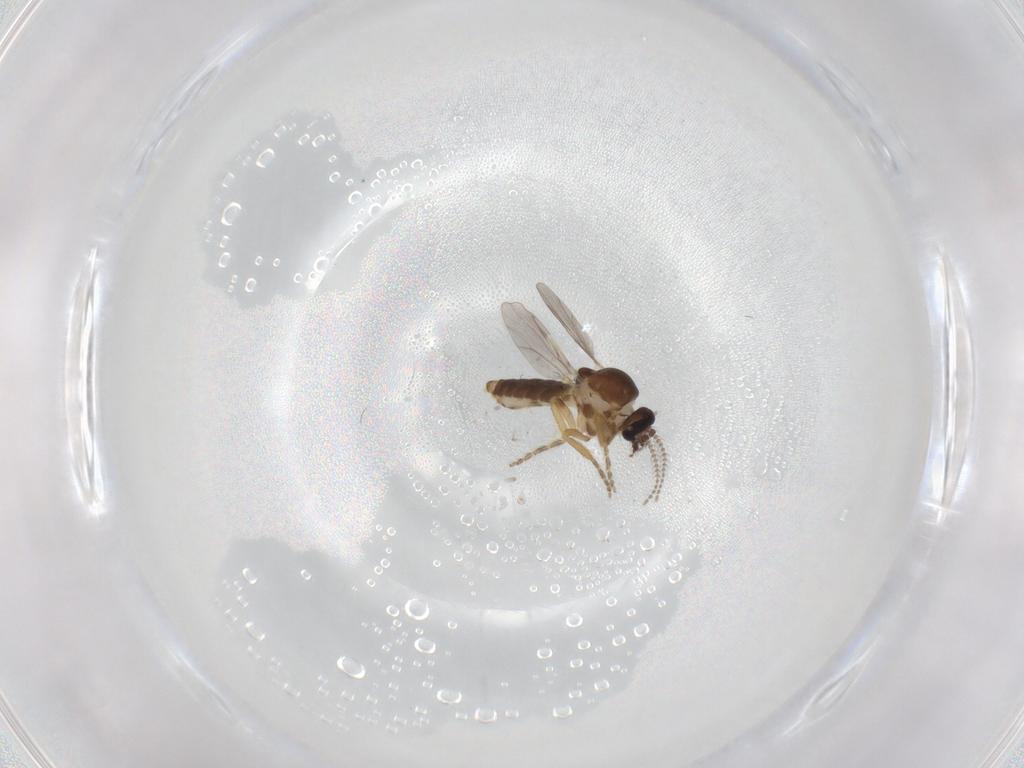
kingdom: Animalia
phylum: Arthropoda
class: Insecta
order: Diptera
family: Ceratopogonidae
